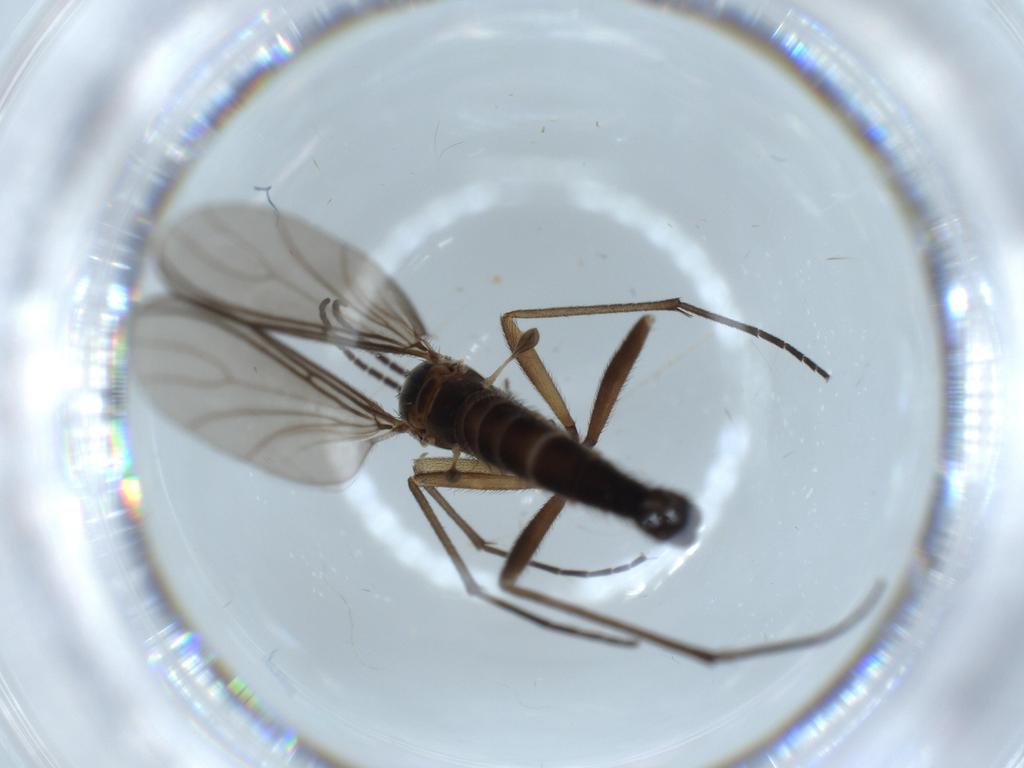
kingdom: Animalia
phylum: Arthropoda
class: Insecta
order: Diptera
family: Sciaridae
